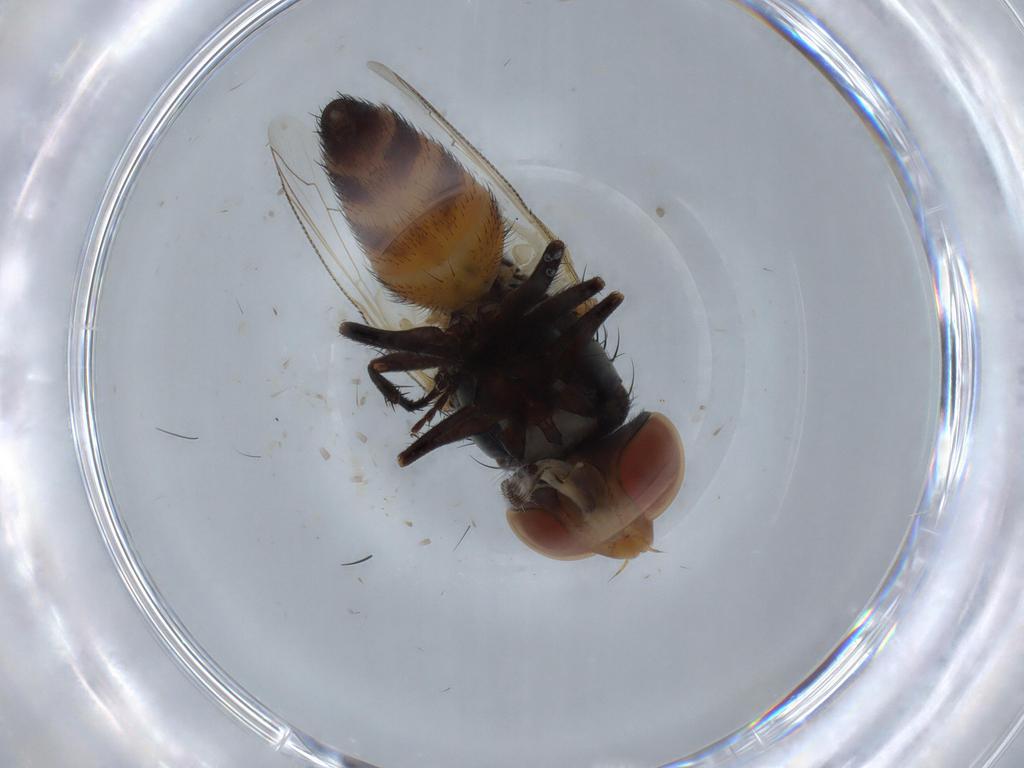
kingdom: Animalia
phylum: Arthropoda
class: Insecta
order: Diptera
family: Sarcophagidae
